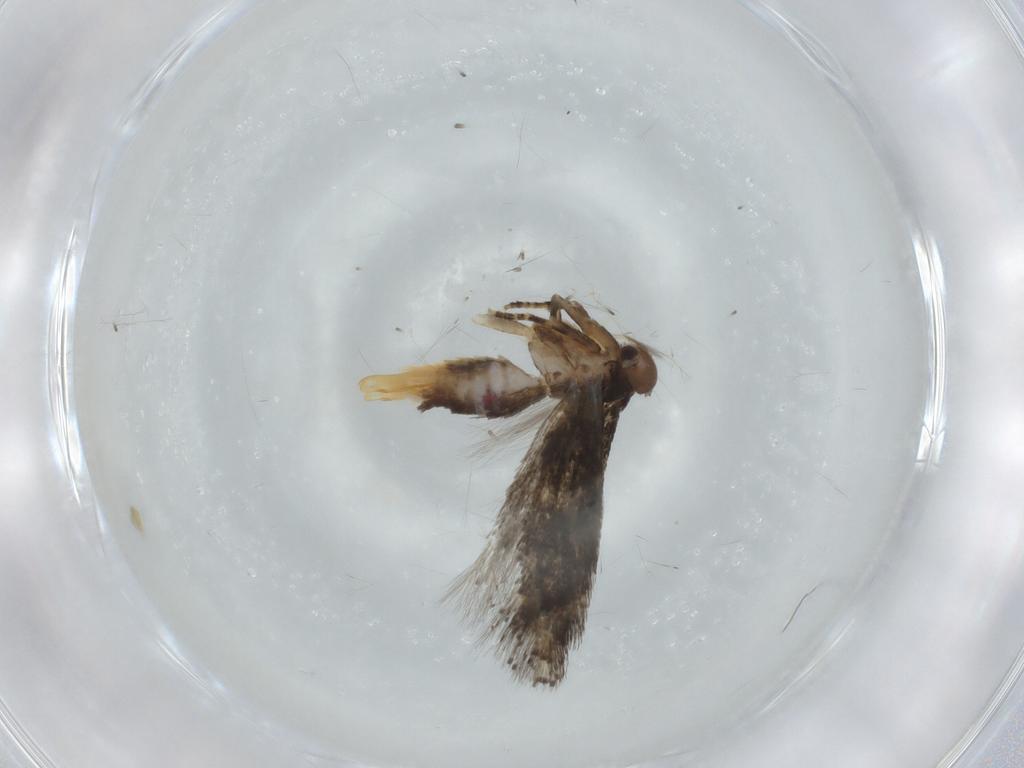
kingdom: Animalia
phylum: Arthropoda
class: Insecta
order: Lepidoptera
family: Elachistidae
